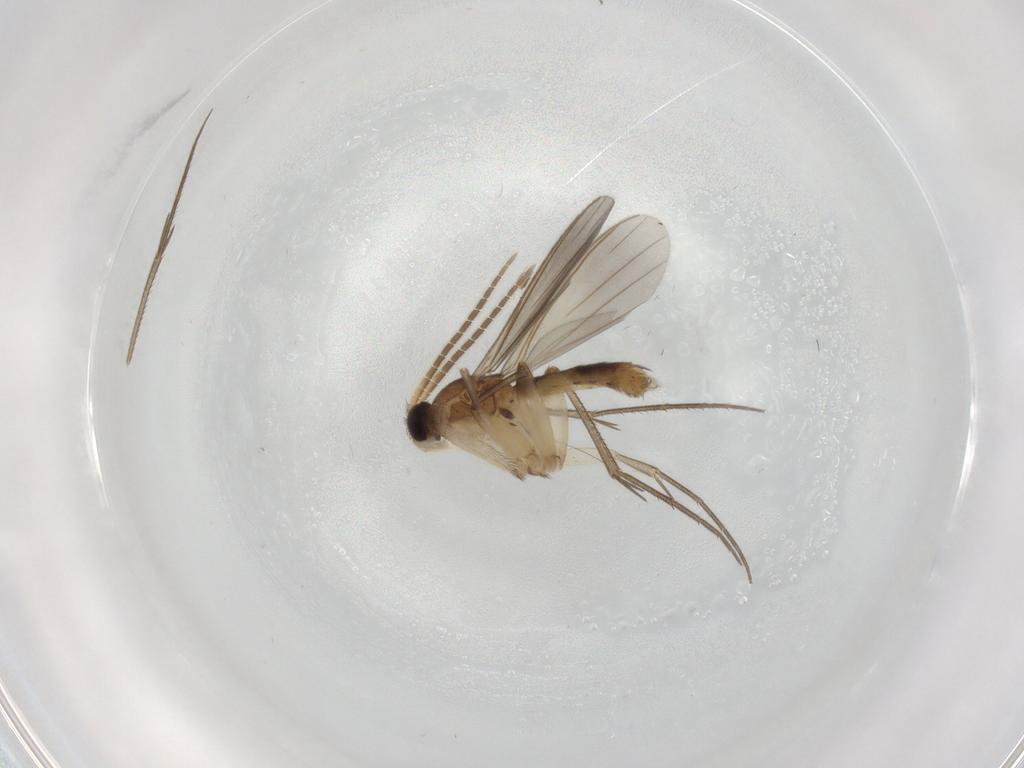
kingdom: Animalia
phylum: Arthropoda
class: Insecta
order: Diptera
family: Mycetophilidae
